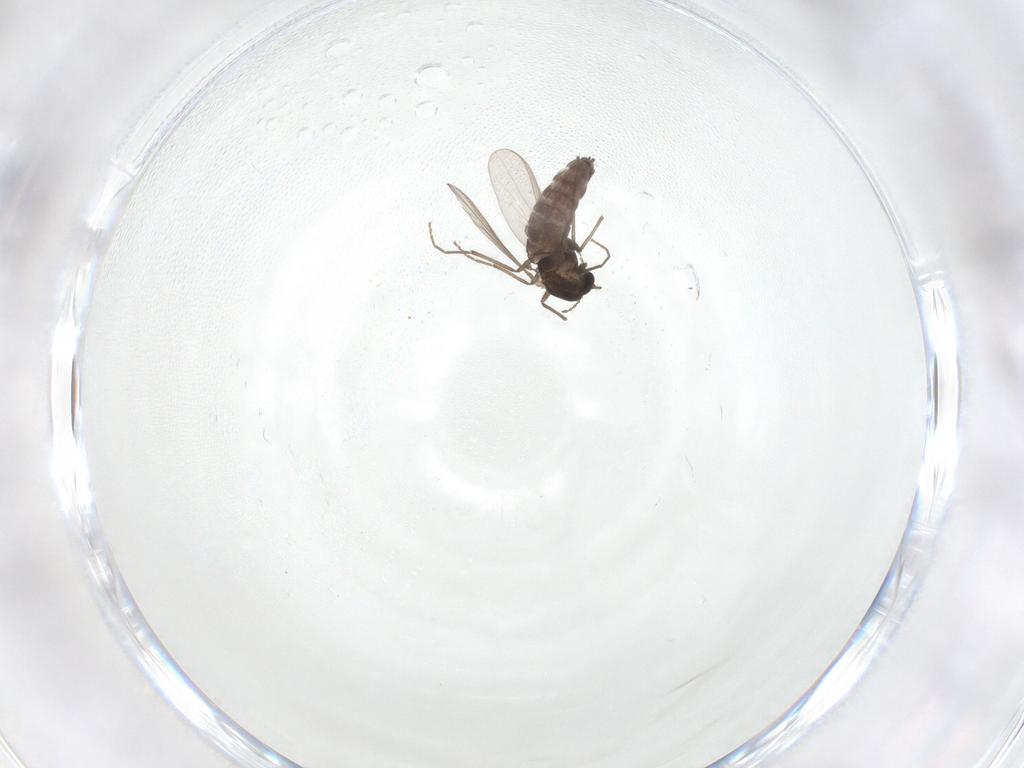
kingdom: Animalia
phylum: Arthropoda
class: Insecta
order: Diptera
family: Chironomidae
